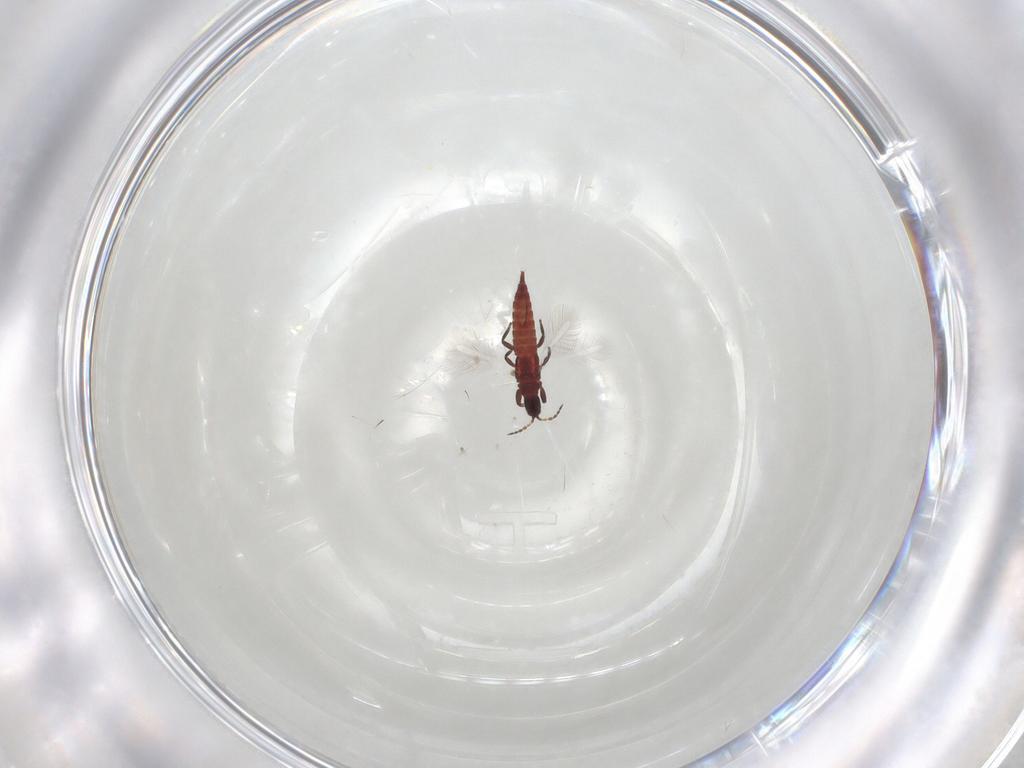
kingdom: Animalia
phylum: Arthropoda
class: Insecta
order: Thysanoptera
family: Phlaeothripidae
